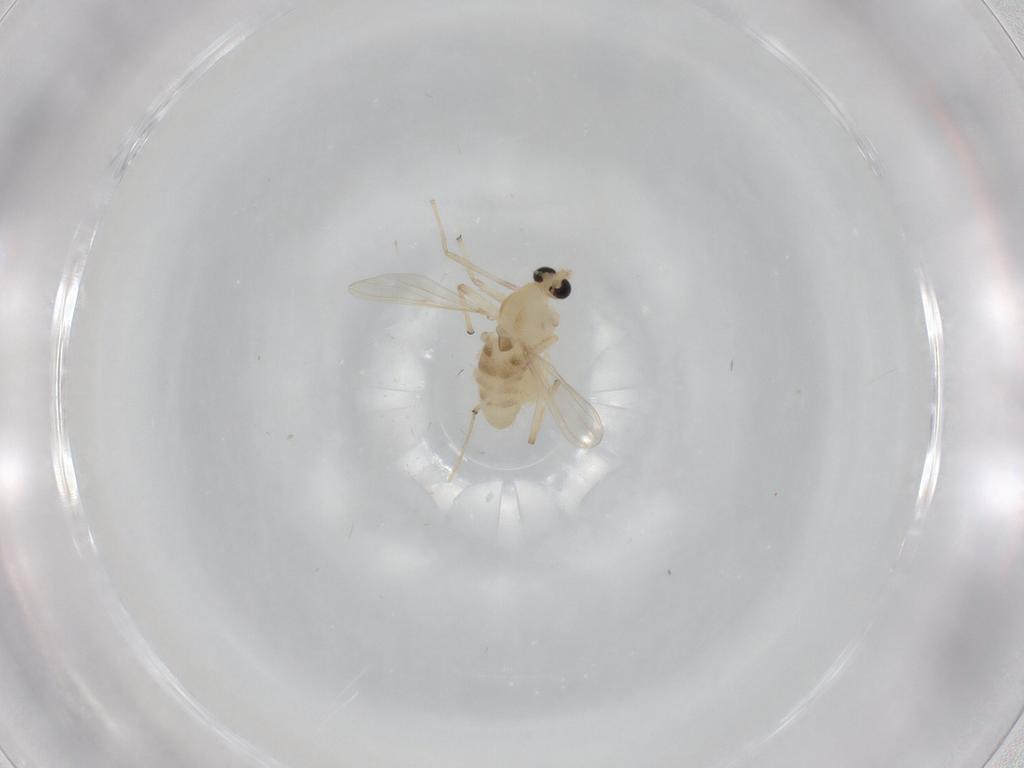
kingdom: Animalia
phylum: Arthropoda
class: Insecta
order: Diptera
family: Chironomidae
